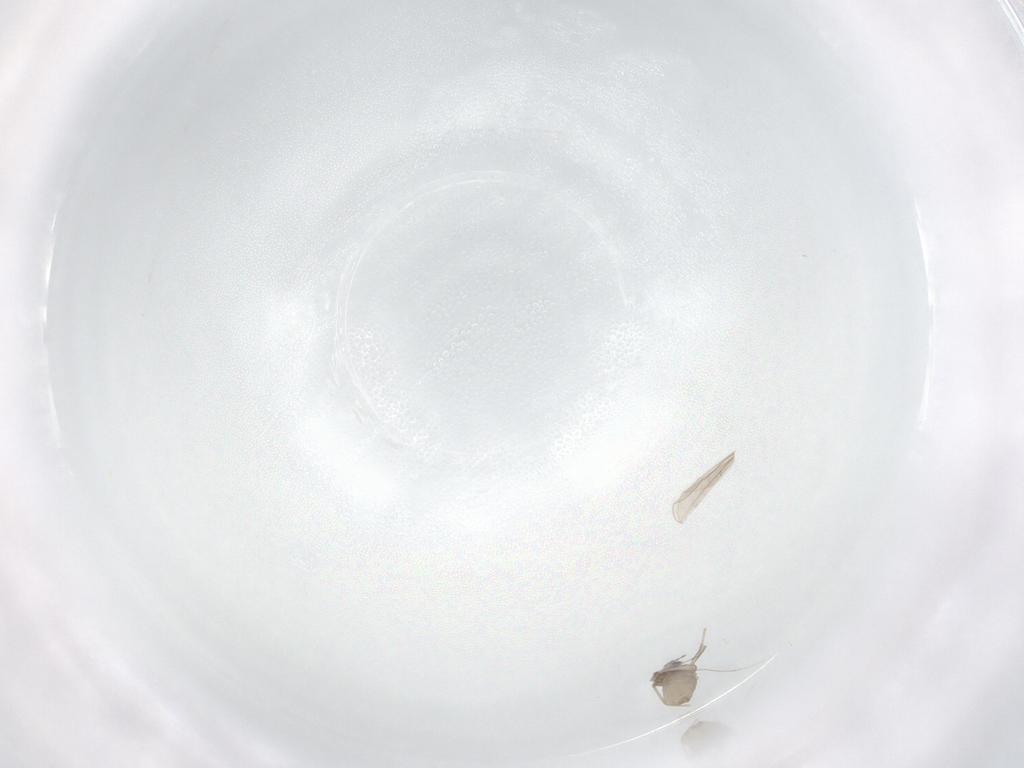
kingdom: Animalia
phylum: Arthropoda
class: Insecta
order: Diptera
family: Cecidomyiidae
